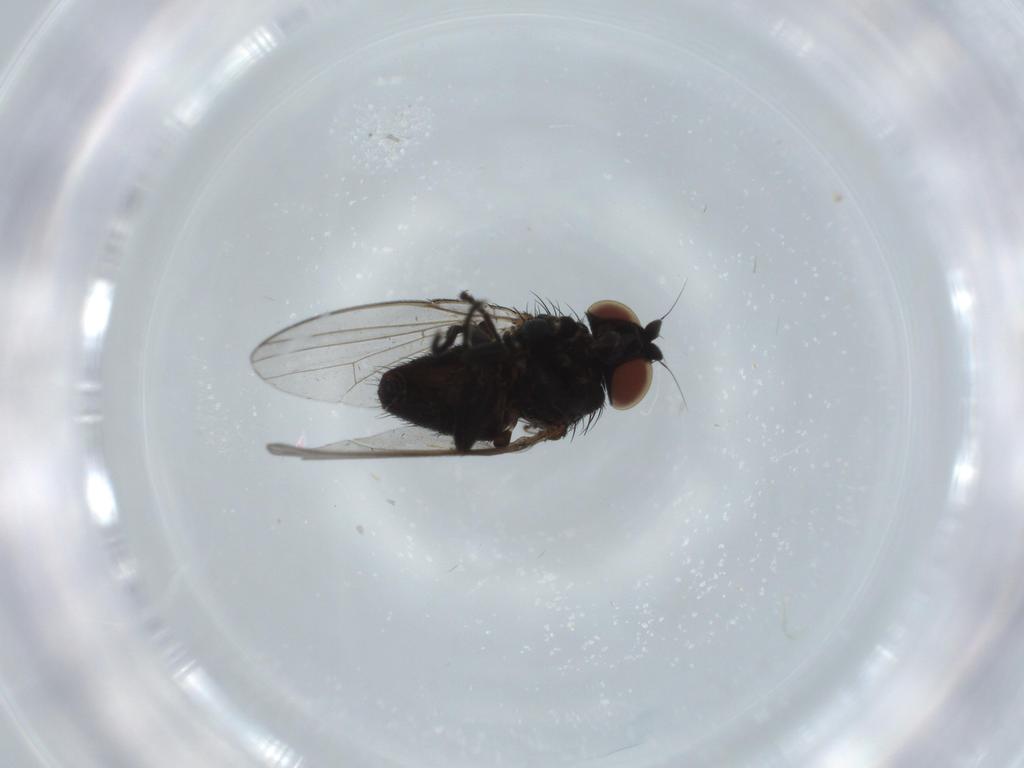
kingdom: Animalia
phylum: Arthropoda
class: Insecta
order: Diptera
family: Milichiidae
